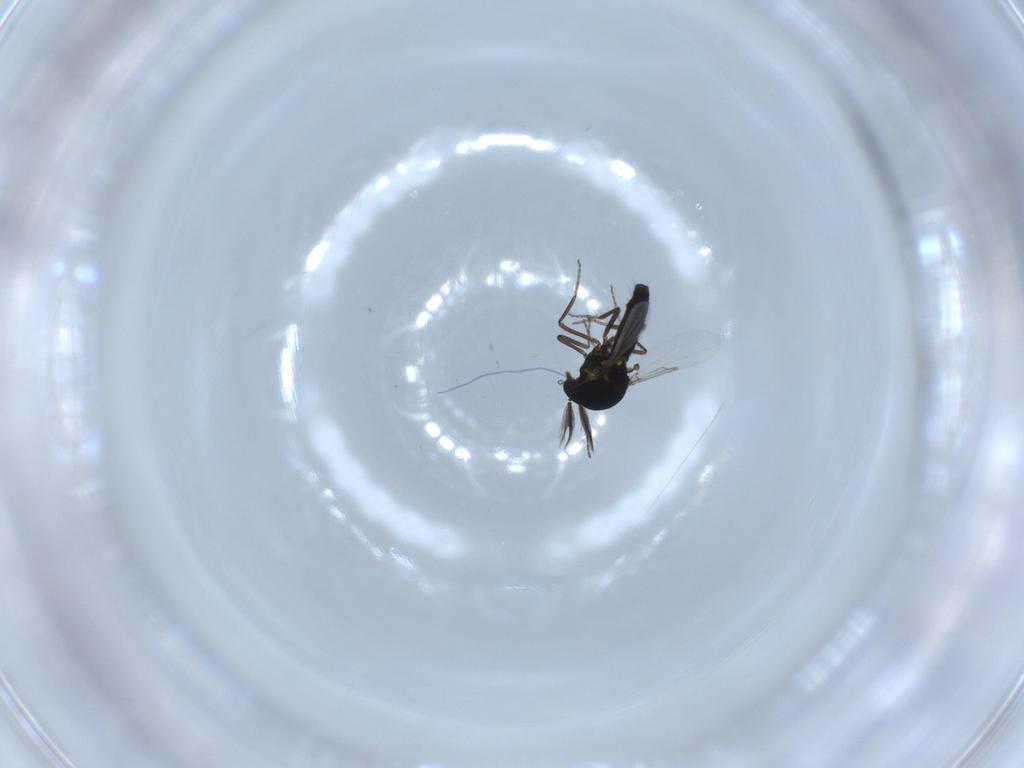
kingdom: Animalia
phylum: Arthropoda
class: Insecta
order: Diptera
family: Ceratopogonidae
